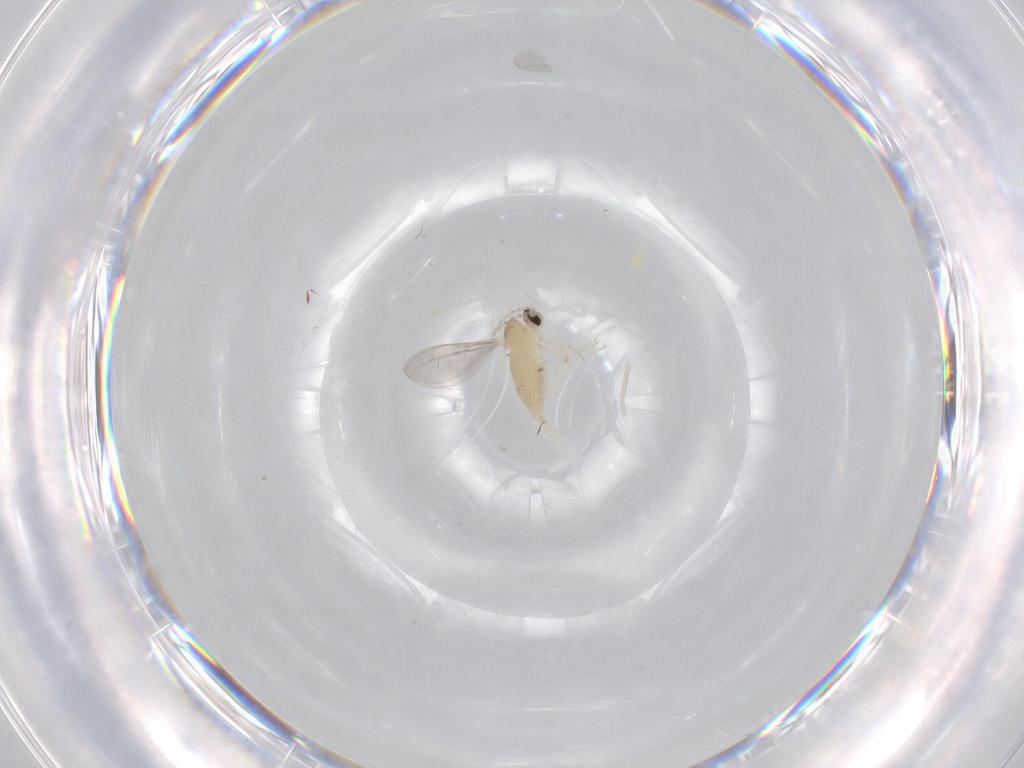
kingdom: Animalia
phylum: Arthropoda
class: Insecta
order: Diptera
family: Cecidomyiidae
